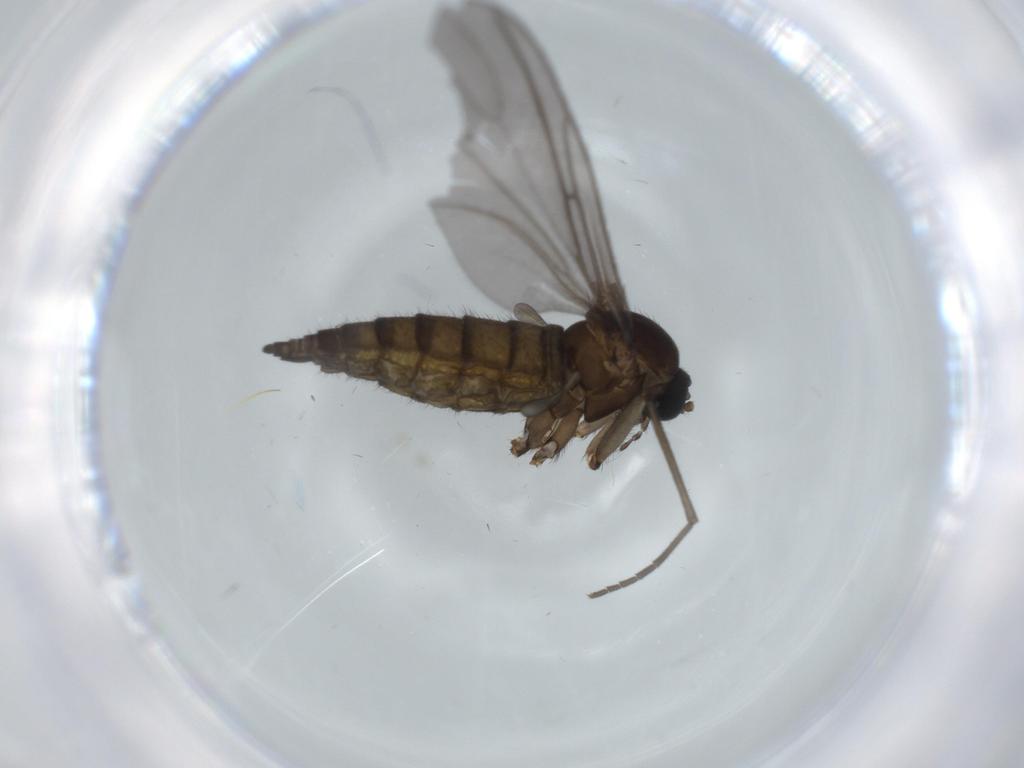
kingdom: Animalia
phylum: Arthropoda
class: Insecta
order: Diptera
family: Sciaridae
